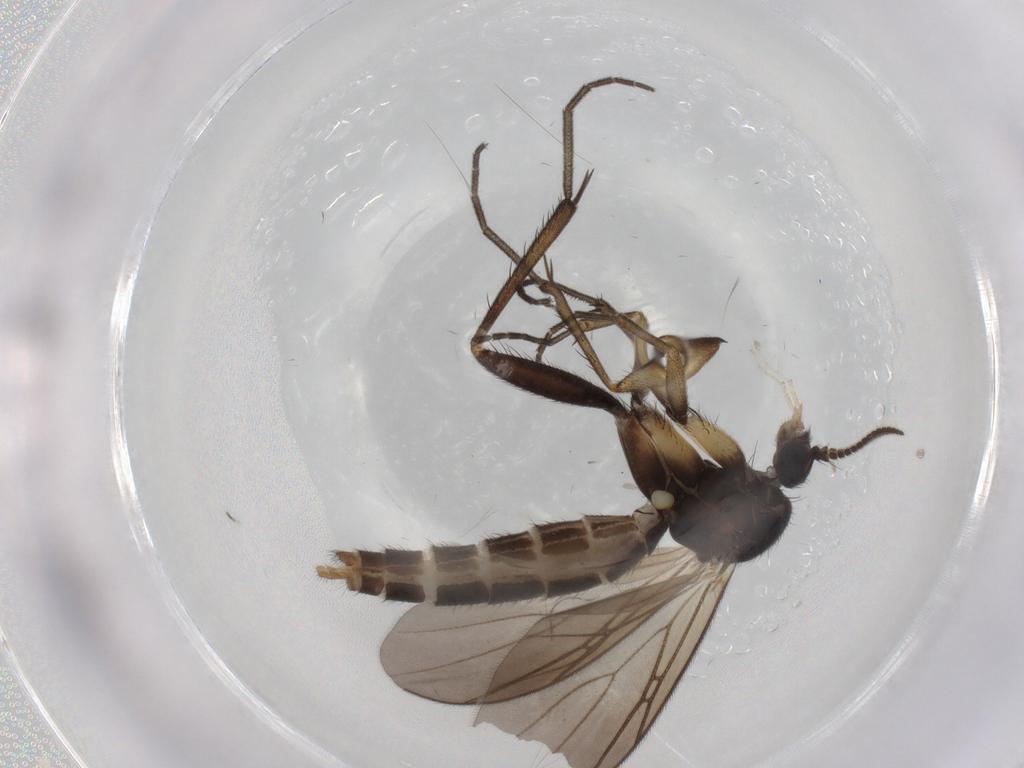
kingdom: Animalia
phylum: Arthropoda
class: Insecta
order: Diptera
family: Mycetophilidae
